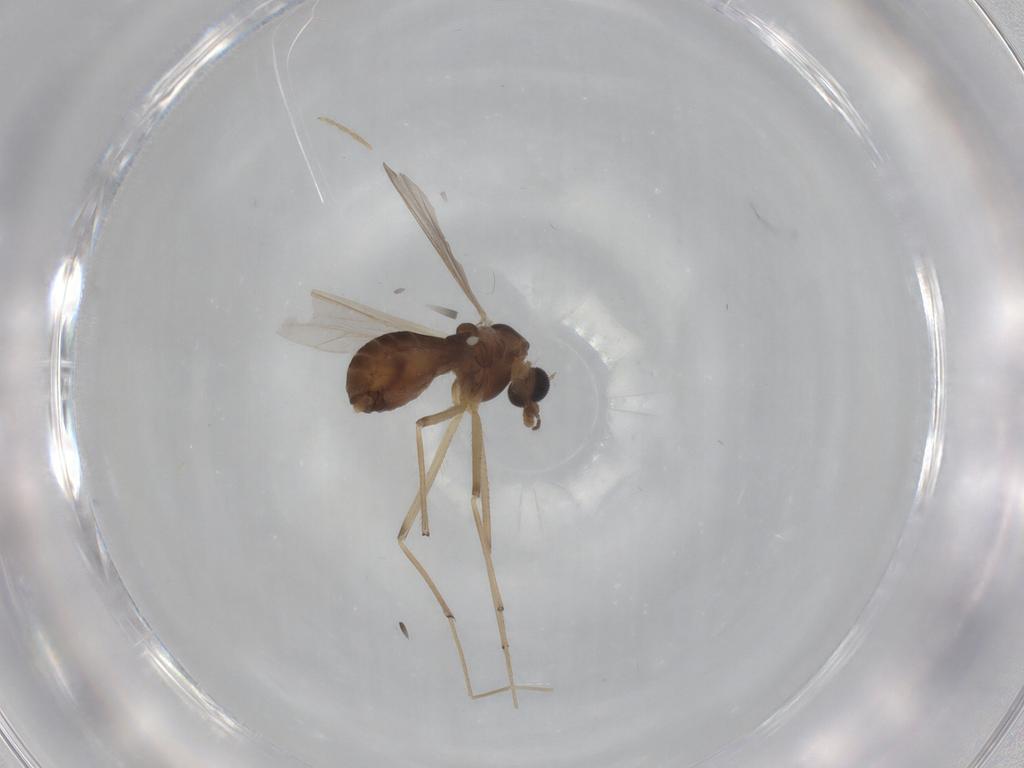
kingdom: Animalia
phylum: Arthropoda
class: Insecta
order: Diptera
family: Chironomidae
